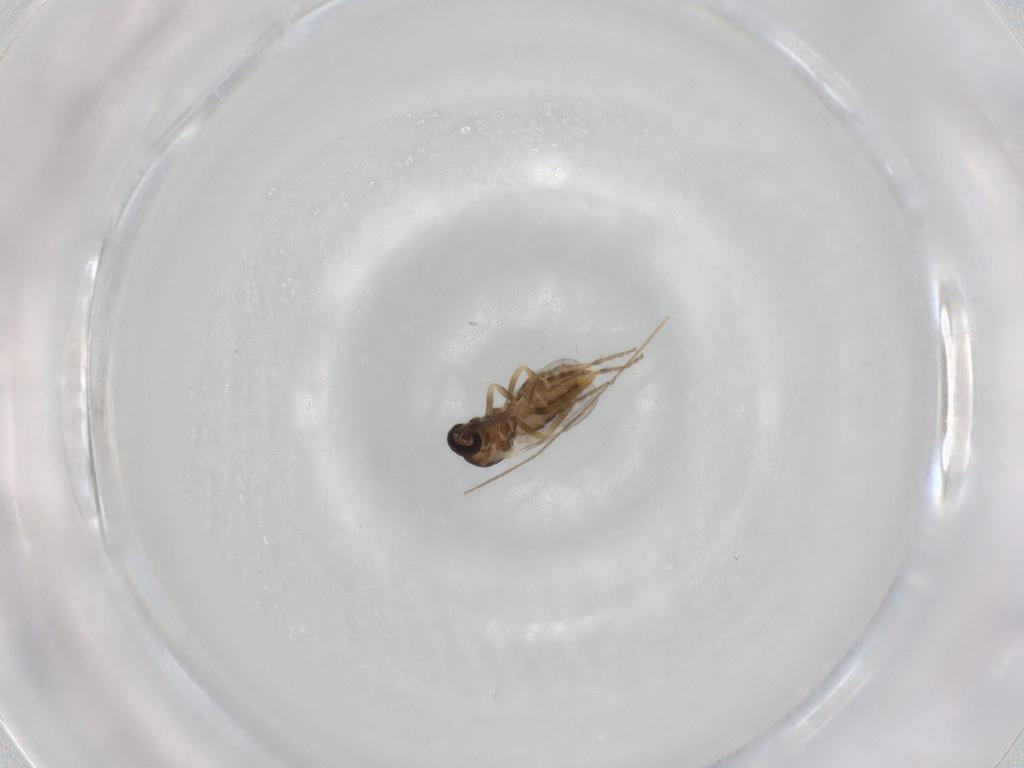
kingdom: Animalia
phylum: Arthropoda
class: Insecta
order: Diptera
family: Ceratopogonidae
